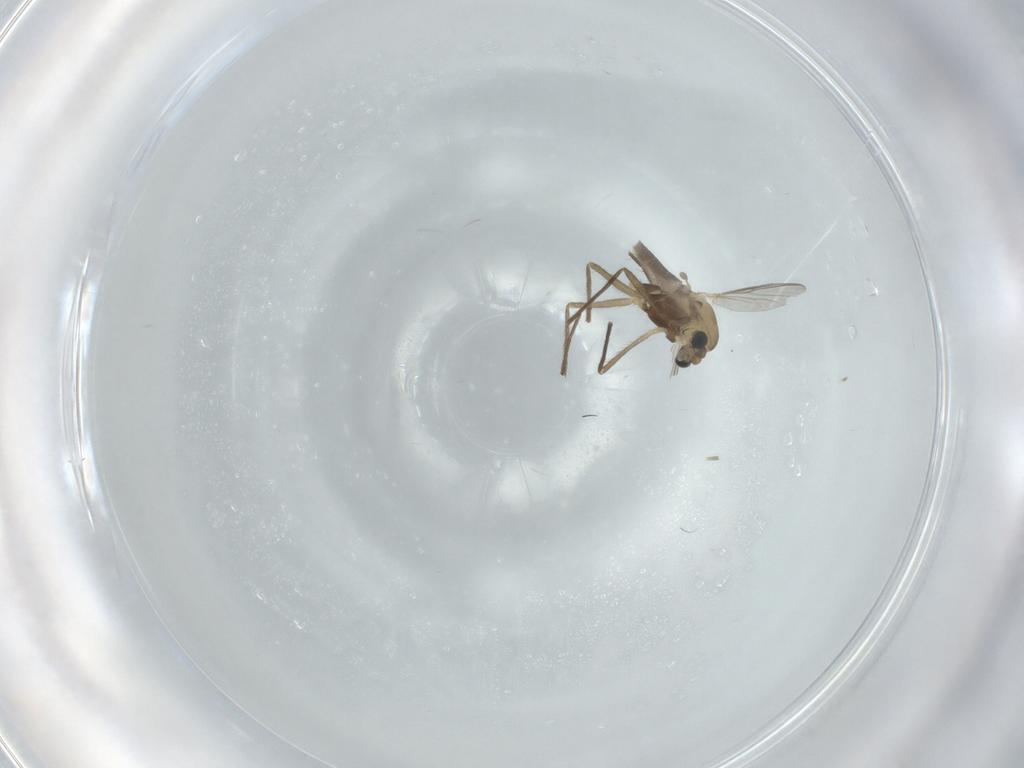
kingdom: Animalia
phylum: Arthropoda
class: Insecta
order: Diptera
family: Chironomidae
